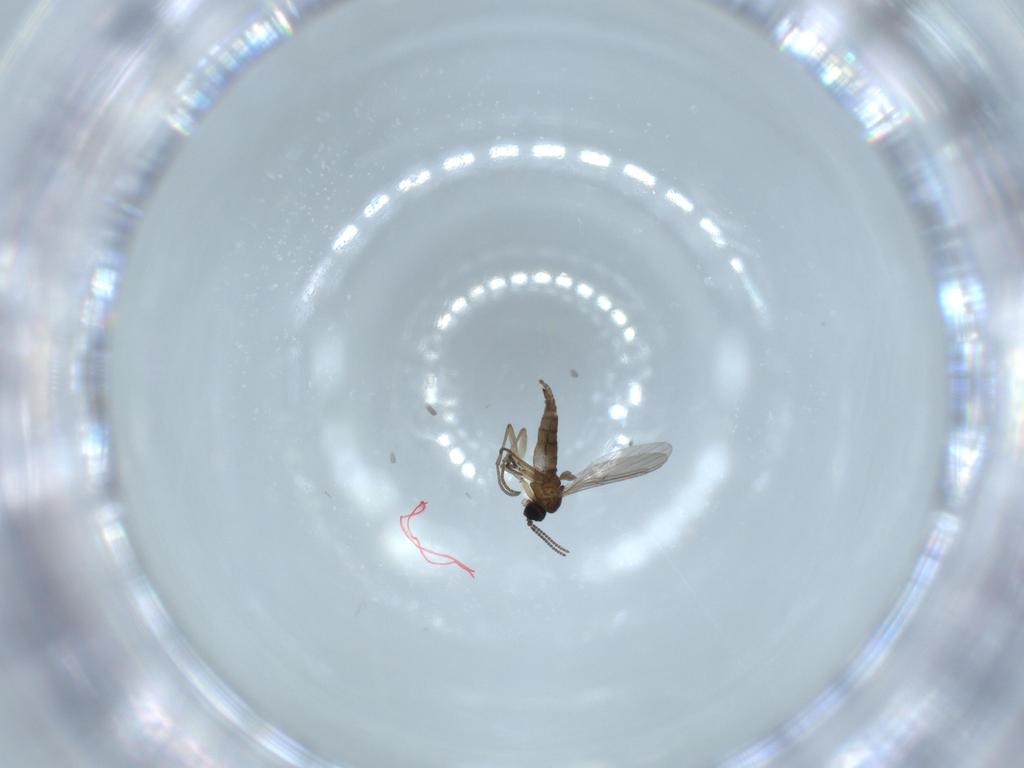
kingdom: Animalia
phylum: Arthropoda
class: Insecta
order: Diptera
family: Sciaridae
